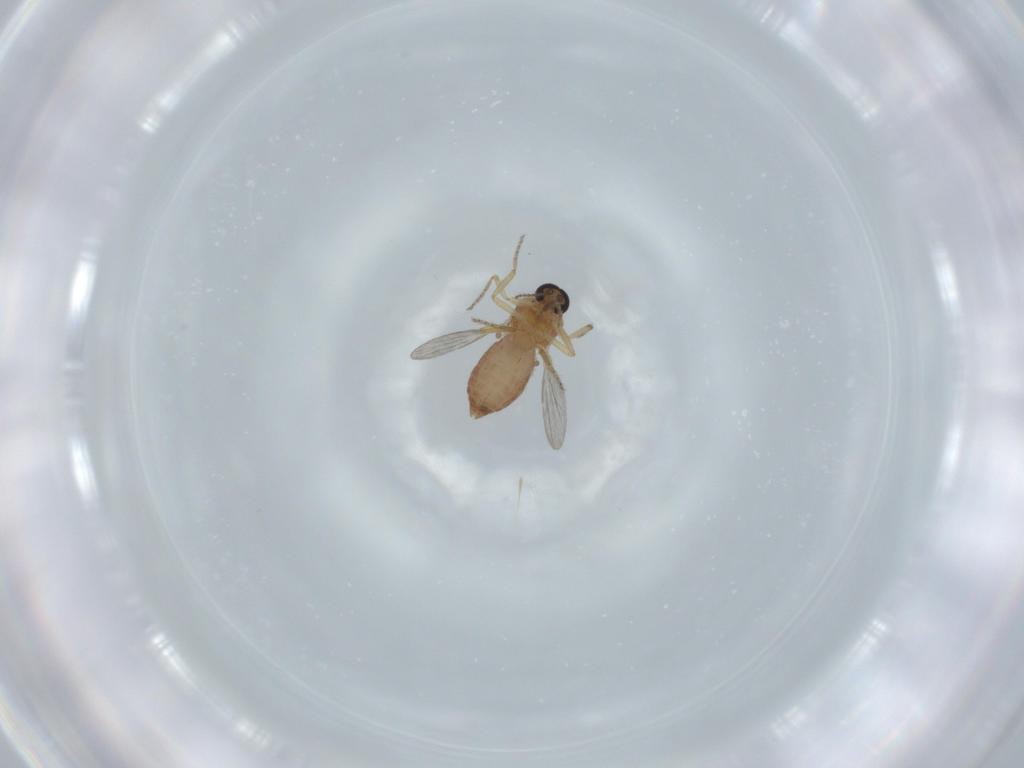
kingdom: Animalia
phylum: Arthropoda
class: Insecta
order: Diptera
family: Ceratopogonidae
